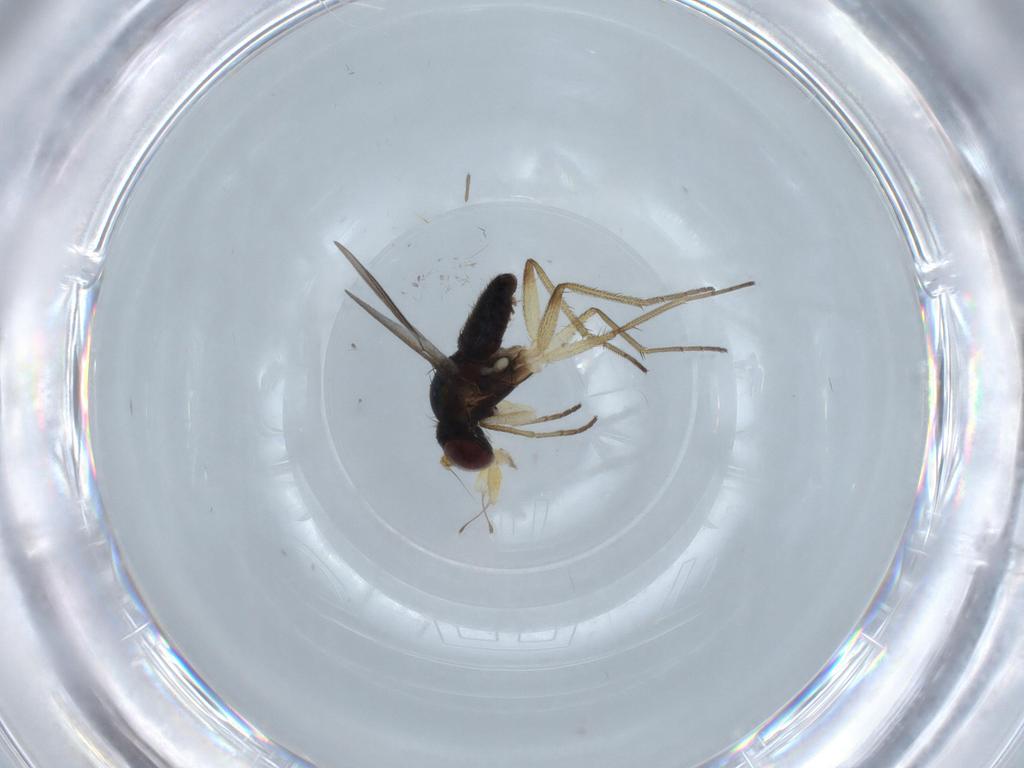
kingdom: Animalia
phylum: Arthropoda
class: Insecta
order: Diptera
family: Dolichopodidae
